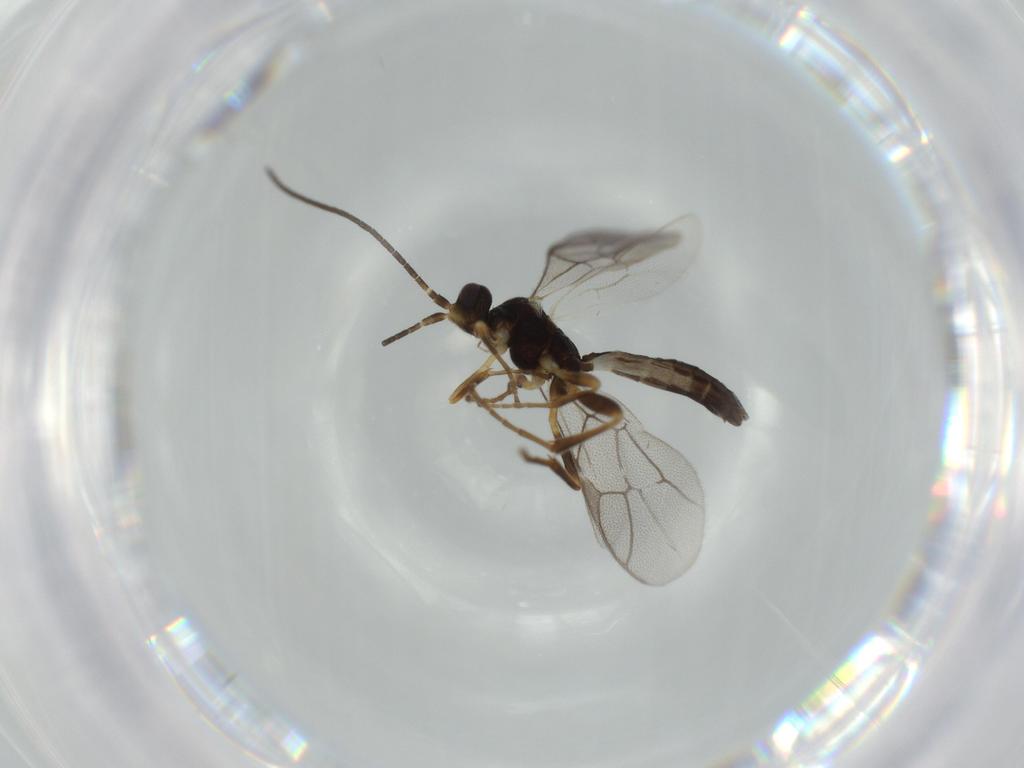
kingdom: Animalia
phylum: Arthropoda
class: Insecta
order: Hymenoptera
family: Ichneumonidae
